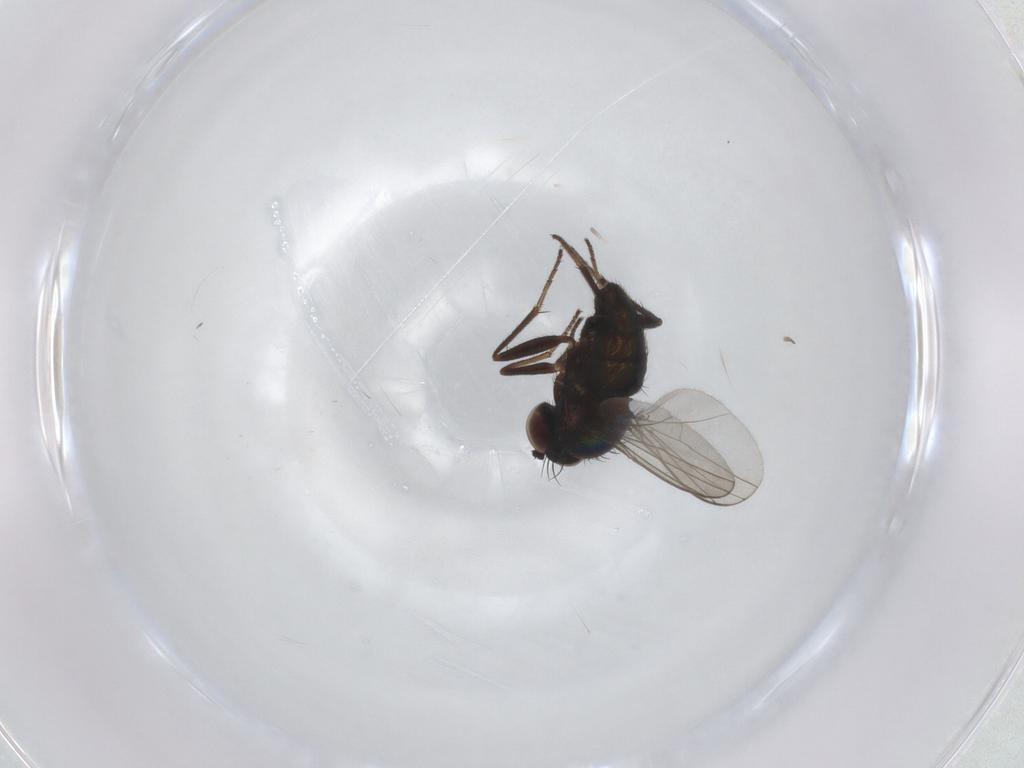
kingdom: Animalia
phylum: Arthropoda
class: Insecta
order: Diptera
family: Dolichopodidae
